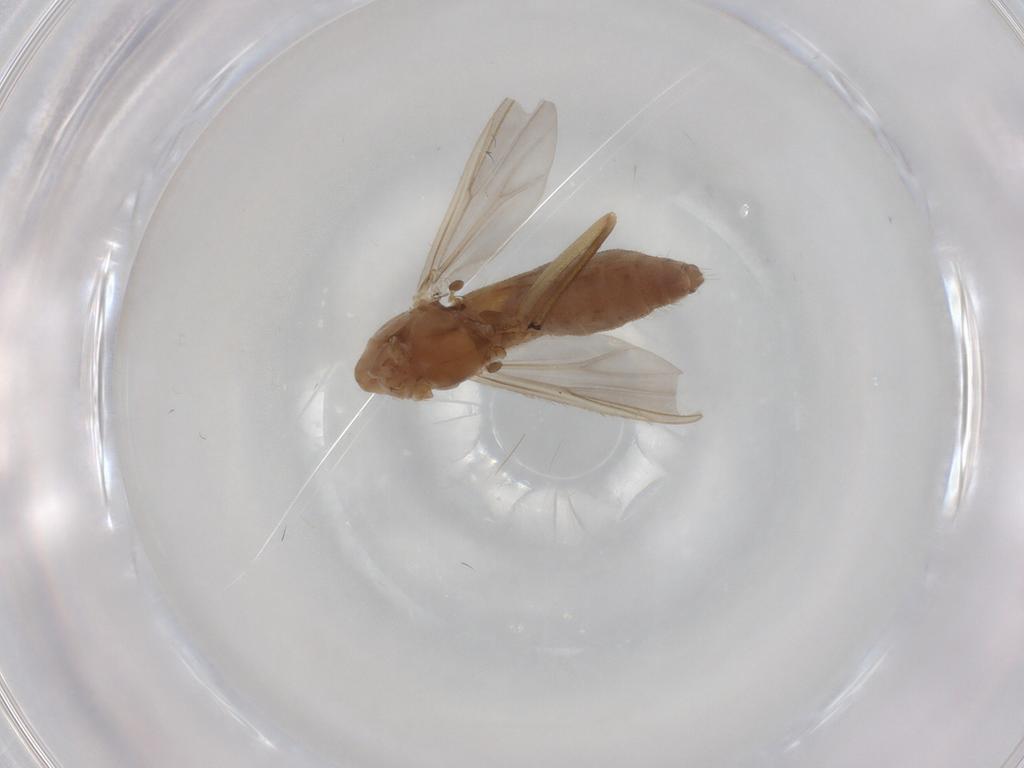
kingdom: Animalia
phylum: Arthropoda
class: Insecta
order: Diptera
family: Chironomidae
